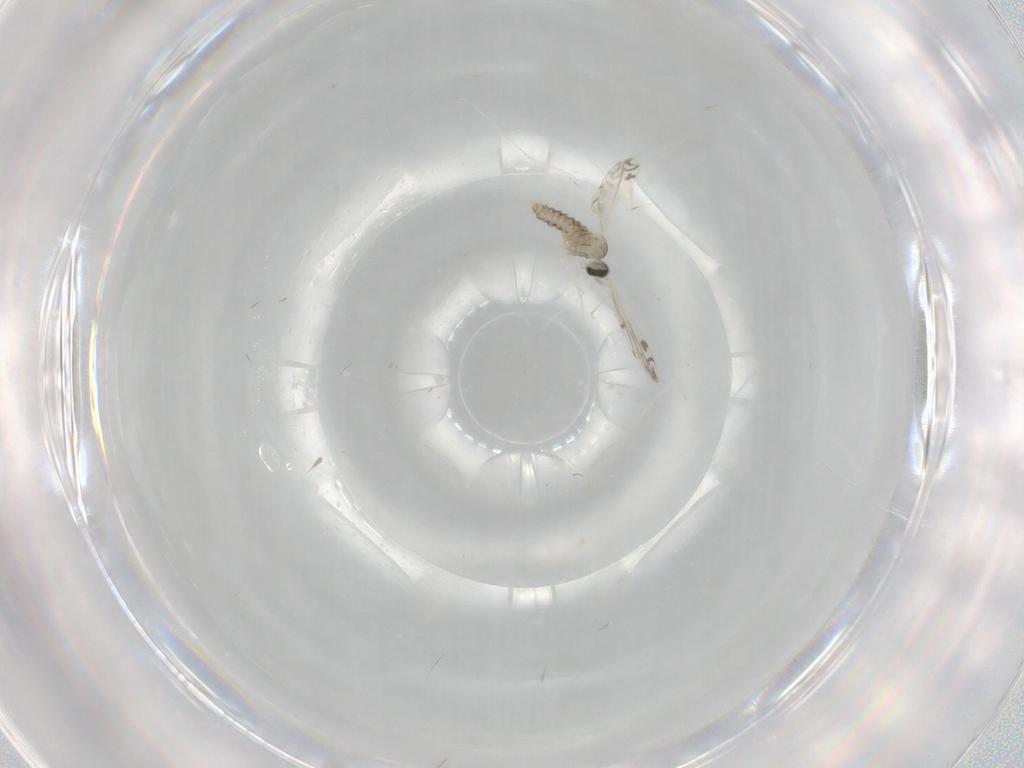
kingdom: Animalia
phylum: Arthropoda
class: Insecta
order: Diptera
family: Cecidomyiidae
